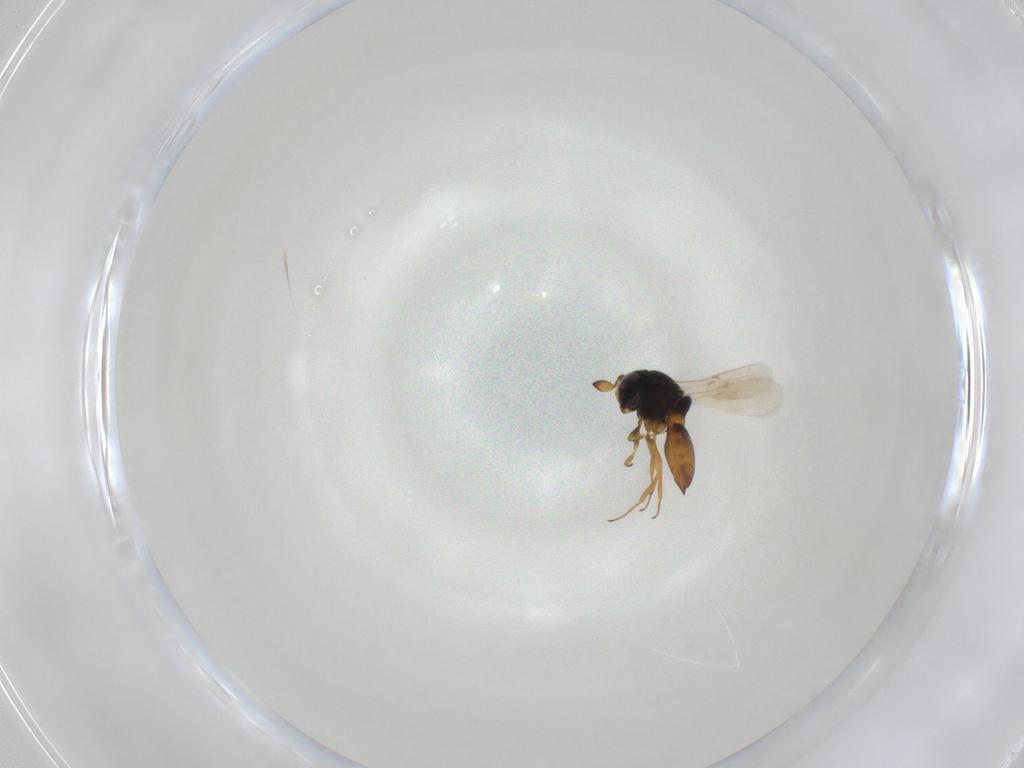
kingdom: Animalia
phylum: Arthropoda
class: Insecta
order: Hymenoptera
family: Scelionidae
